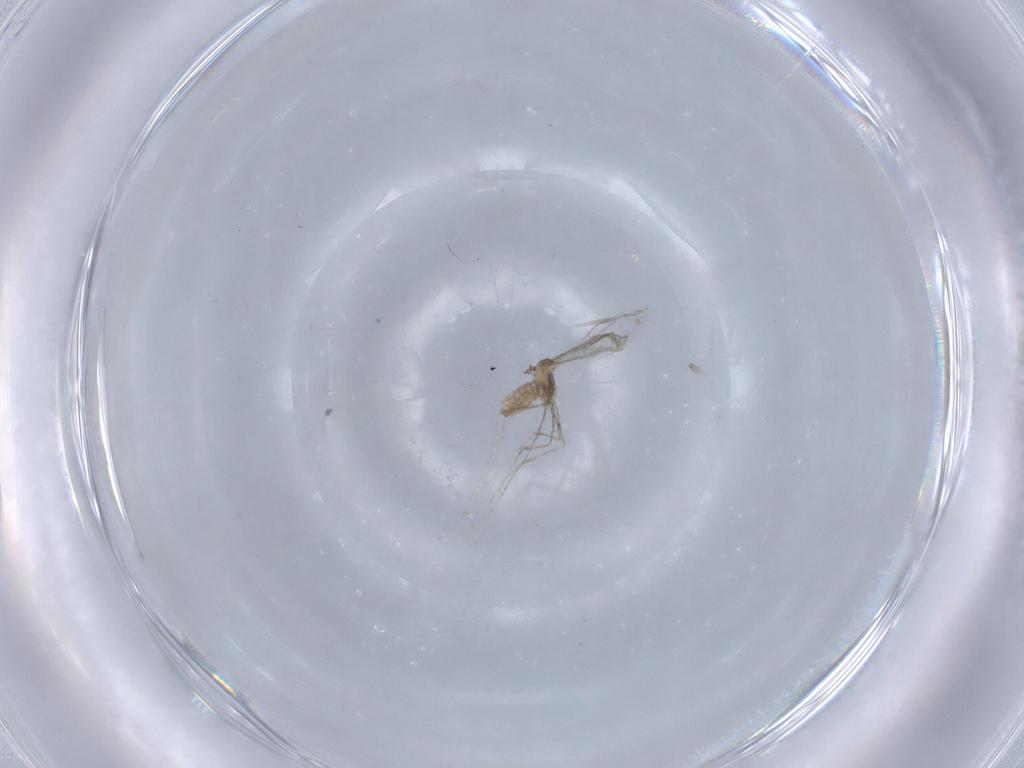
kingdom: Animalia
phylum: Arthropoda
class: Insecta
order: Diptera
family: Cecidomyiidae
